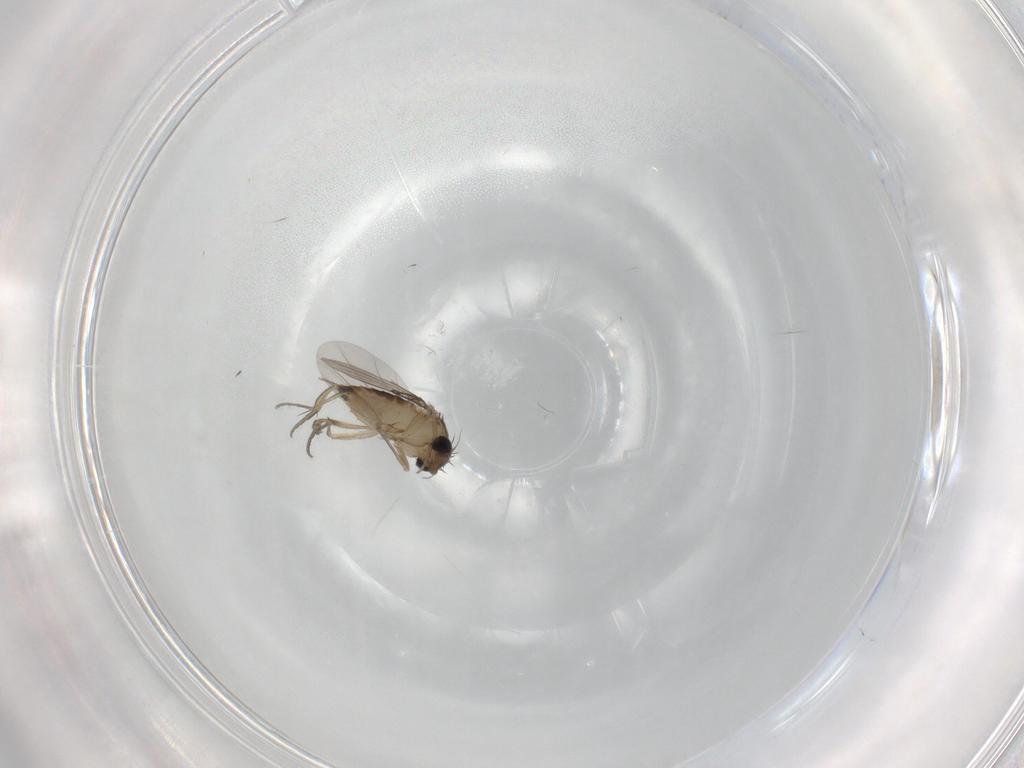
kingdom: Animalia
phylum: Arthropoda
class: Insecta
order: Diptera
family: Phoridae
